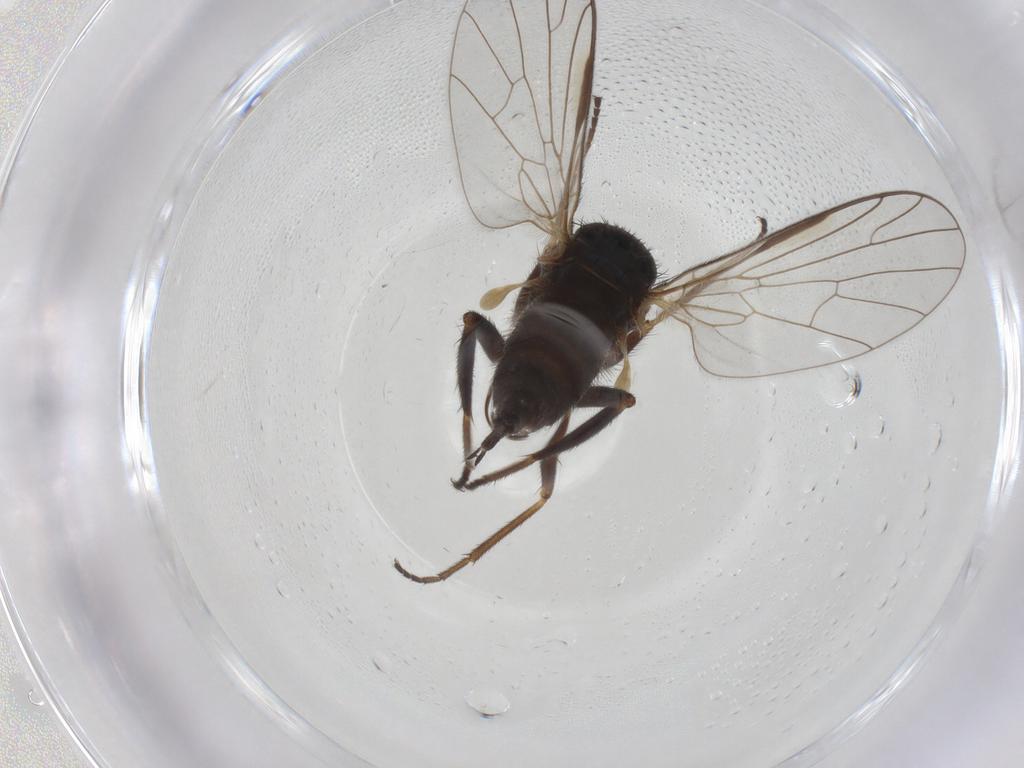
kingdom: Animalia
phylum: Arthropoda
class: Insecta
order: Diptera
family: Empididae
